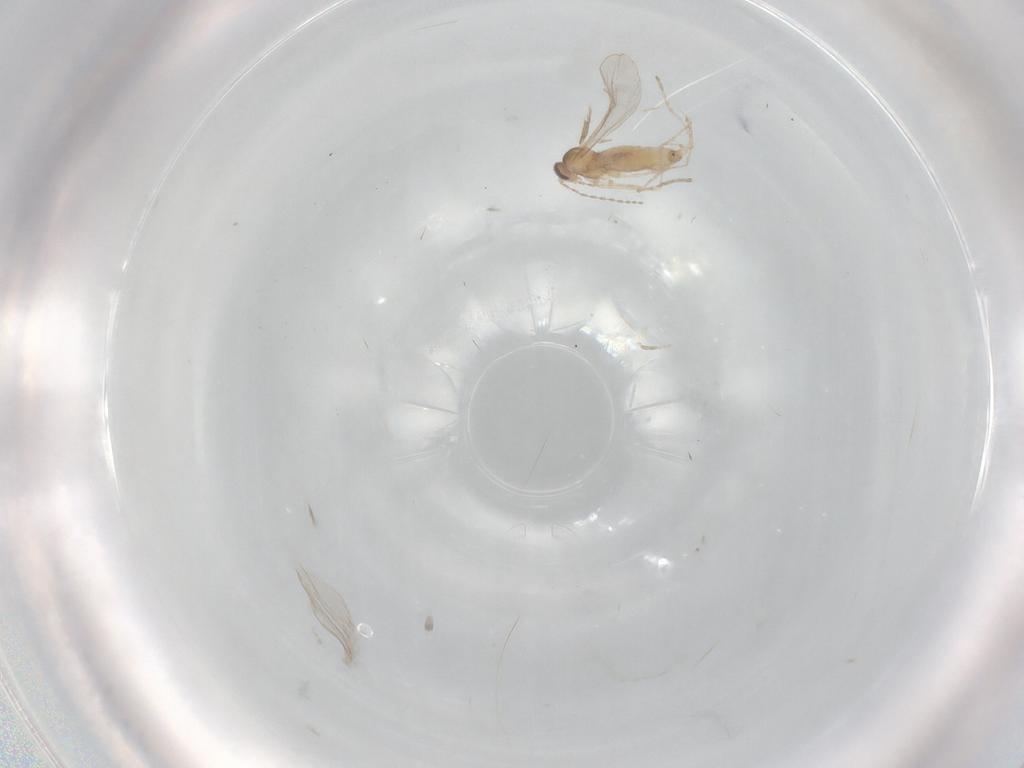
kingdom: Animalia
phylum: Arthropoda
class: Insecta
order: Diptera
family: Cecidomyiidae
